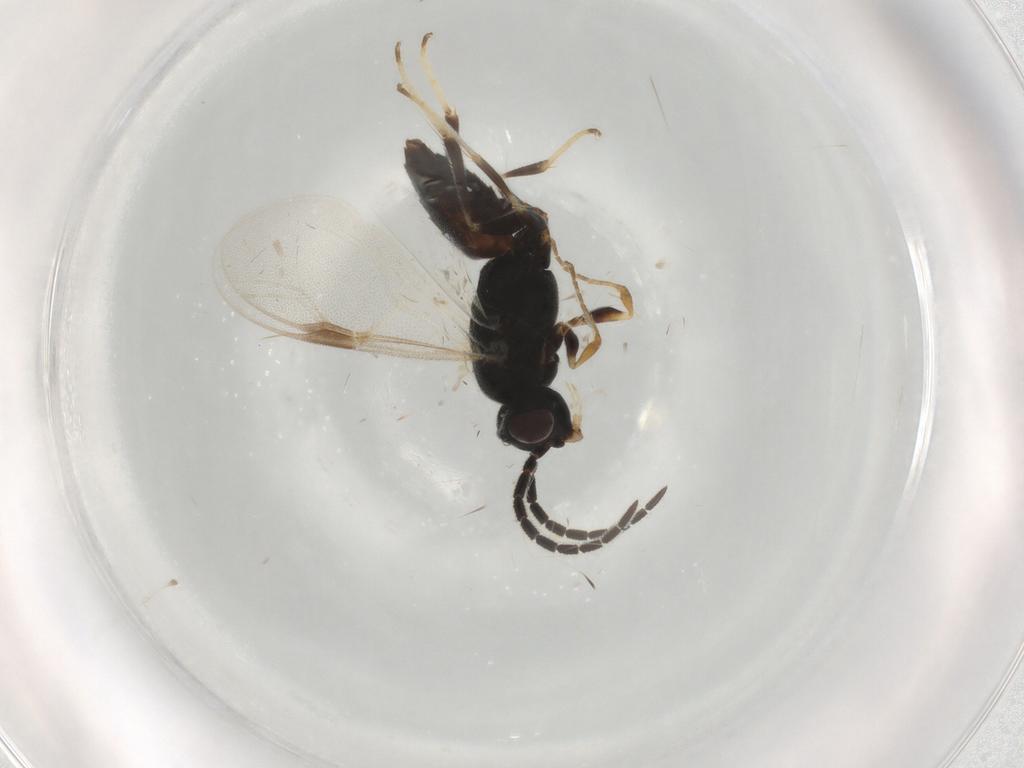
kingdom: Animalia
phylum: Arthropoda
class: Insecta
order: Hymenoptera
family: Dryinidae
